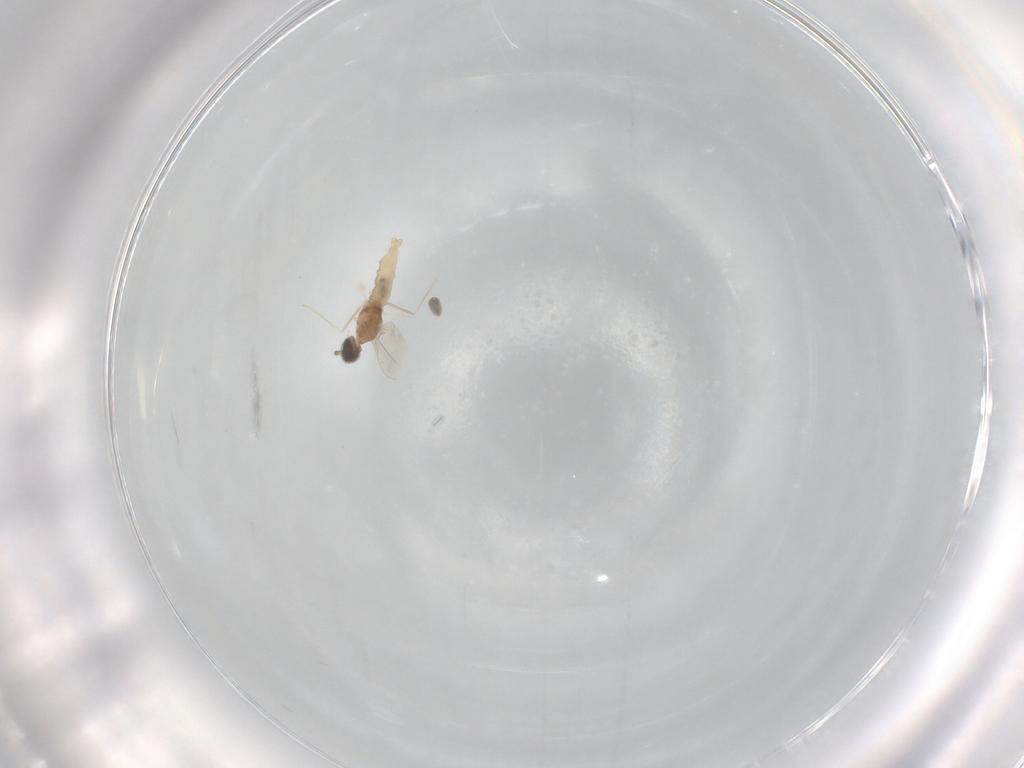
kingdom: Animalia
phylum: Arthropoda
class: Insecta
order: Diptera
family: Cecidomyiidae
